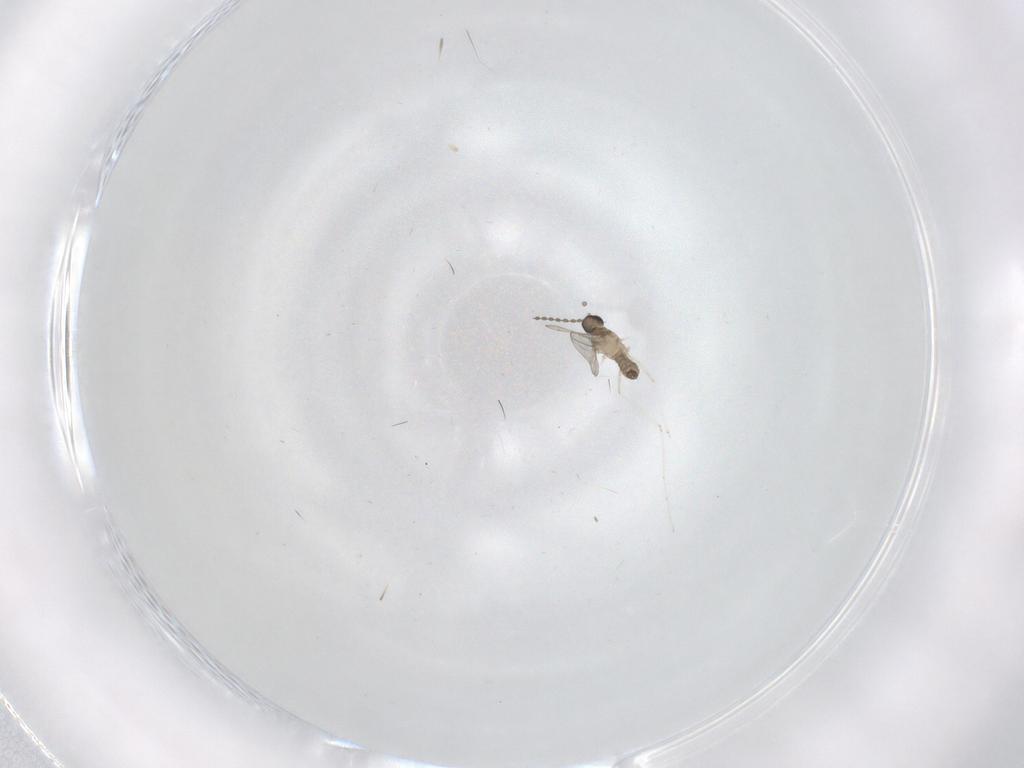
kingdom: Animalia
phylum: Arthropoda
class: Insecta
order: Diptera
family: Cecidomyiidae
